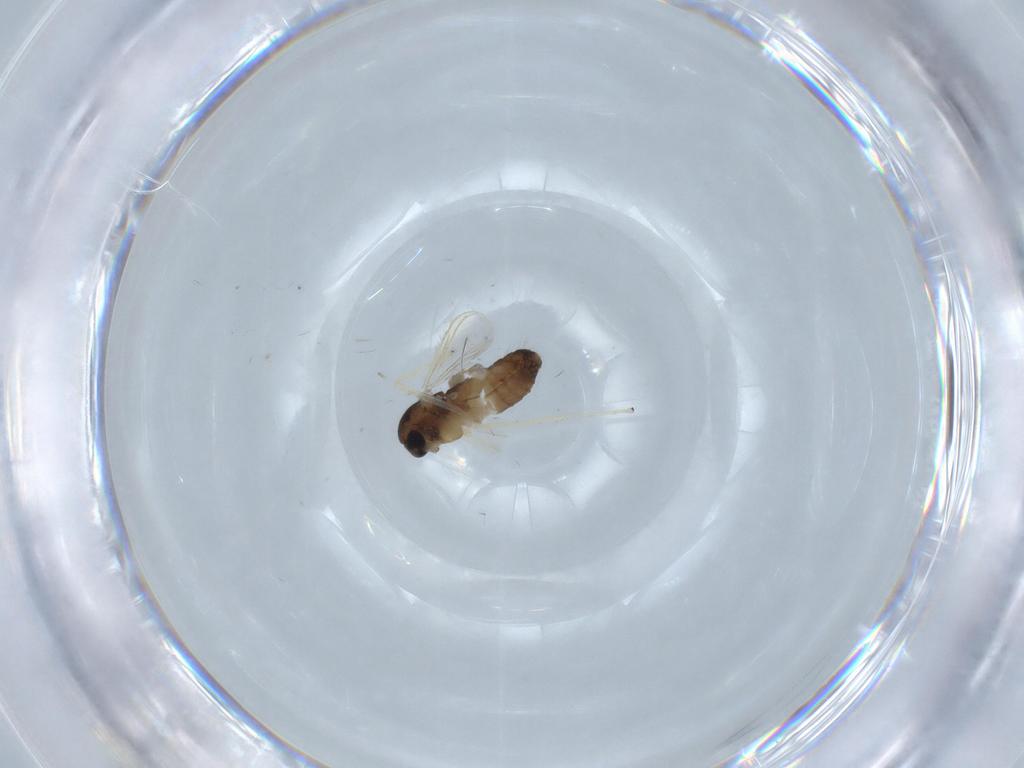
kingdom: Animalia
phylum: Arthropoda
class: Insecta
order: Diptera
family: Chironomidae
